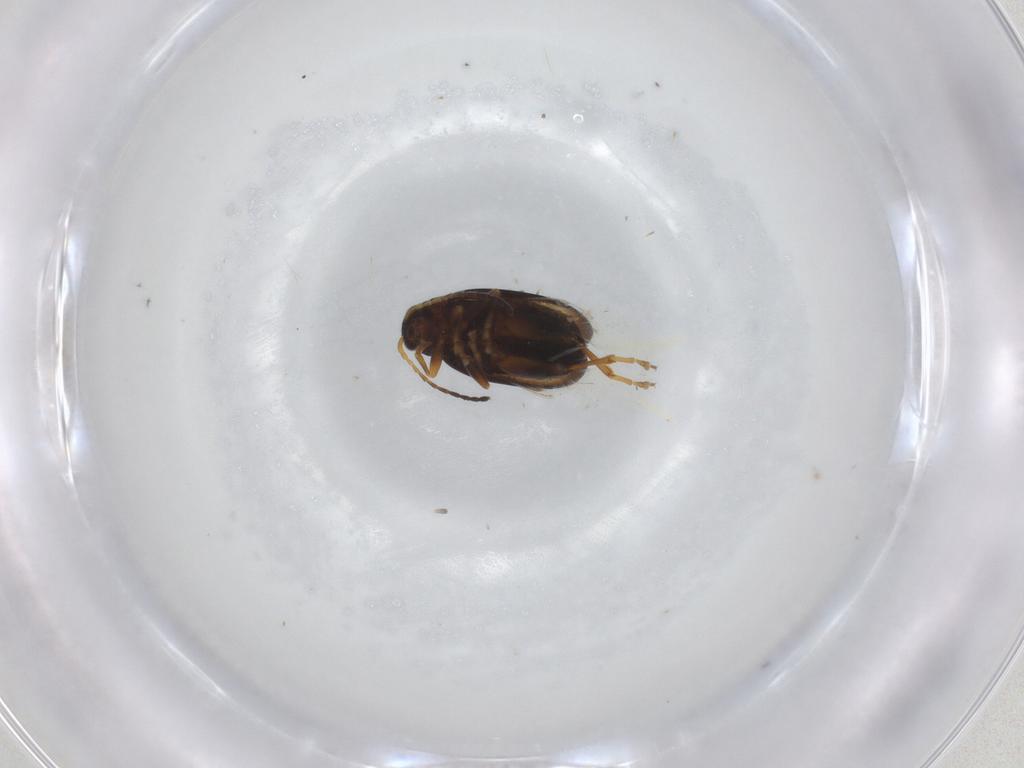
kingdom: Animalia
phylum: Arthropoda
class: Insecta
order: Coleoptera
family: Chrysomelidae
